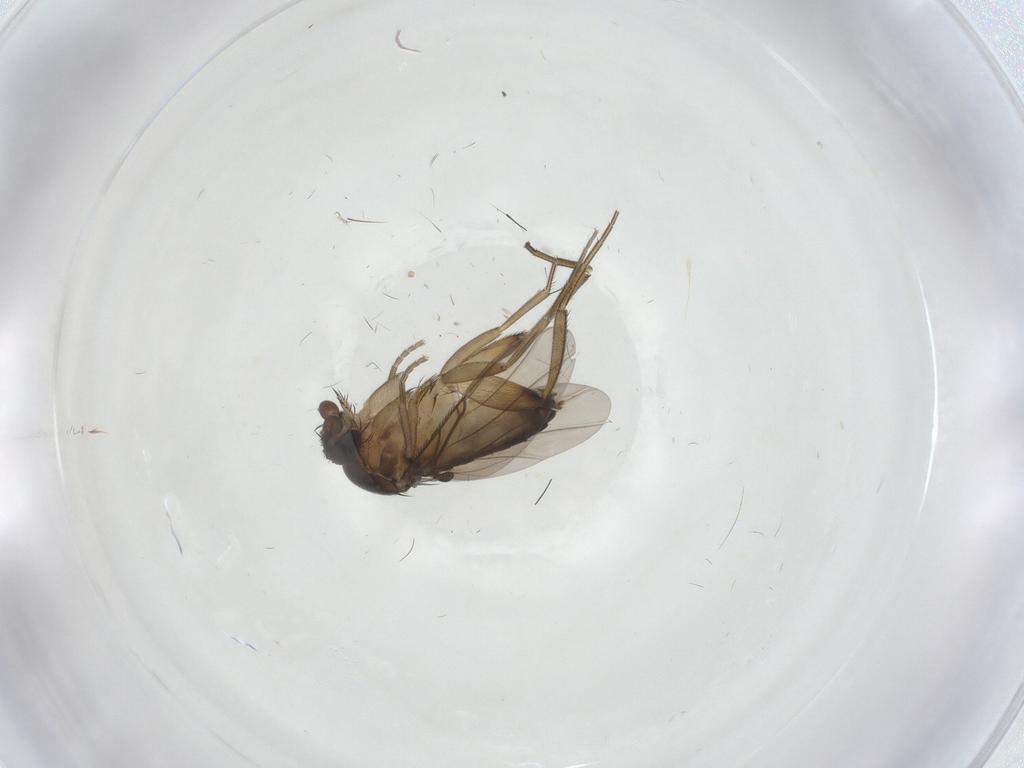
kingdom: Animalia
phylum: Arthropoda
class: Insecta
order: Diptera
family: Phoridae
